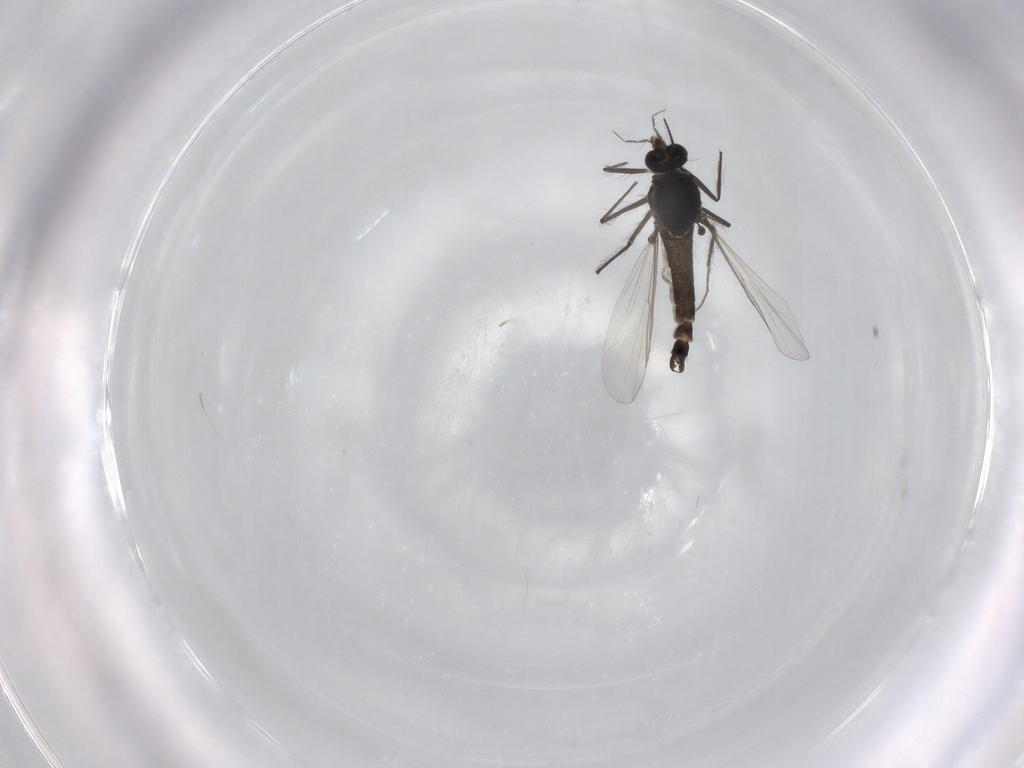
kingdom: Animalia
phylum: Arthropoda
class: Insecta
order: Diptera
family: Chironomidae
